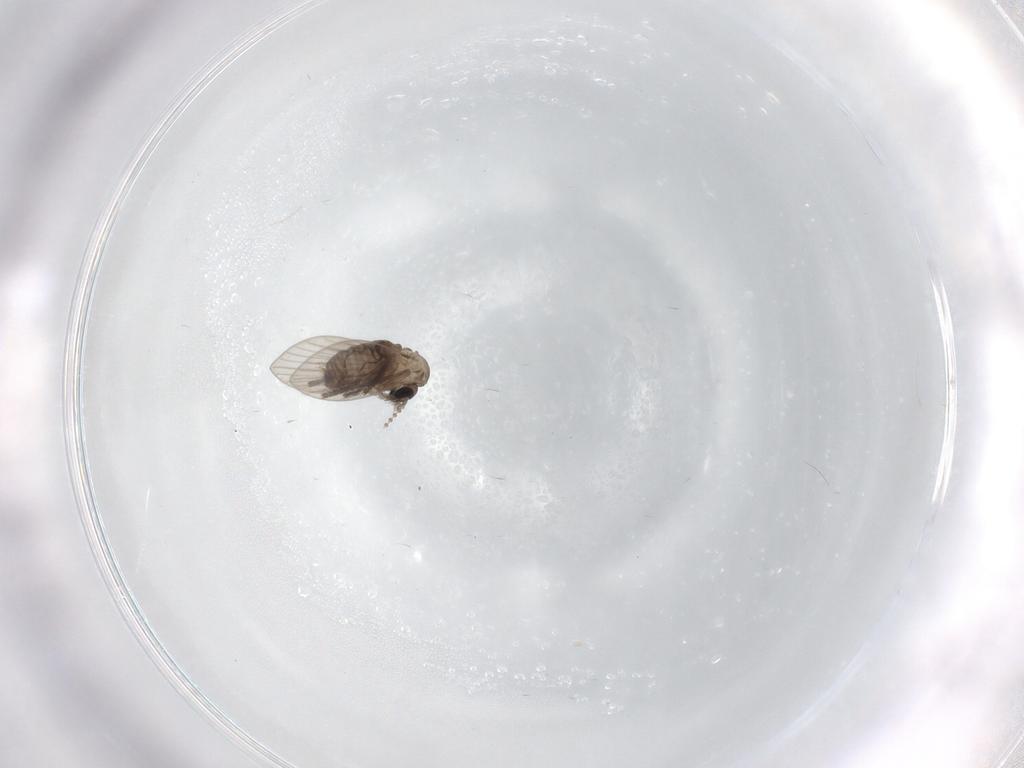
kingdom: Animalia
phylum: Arthropoda
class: Insecta
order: Diptera
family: Psychodidae
